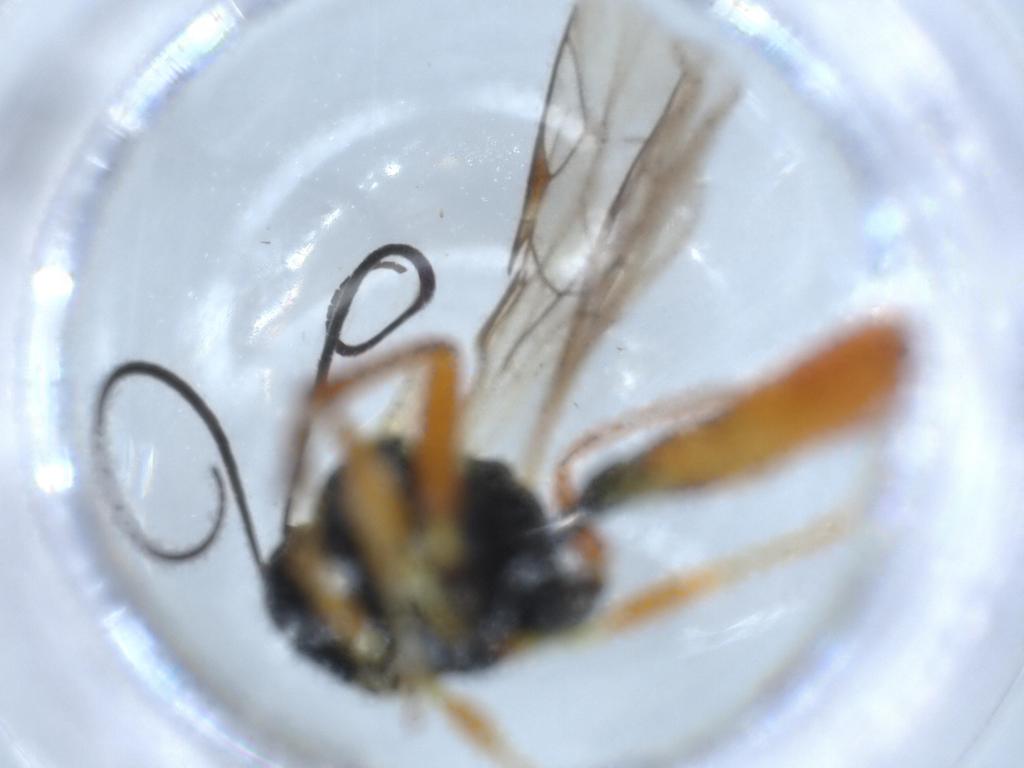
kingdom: Animalia
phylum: Arthropoda
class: Insecta
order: Hymenoptera
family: Ichneumonidae
